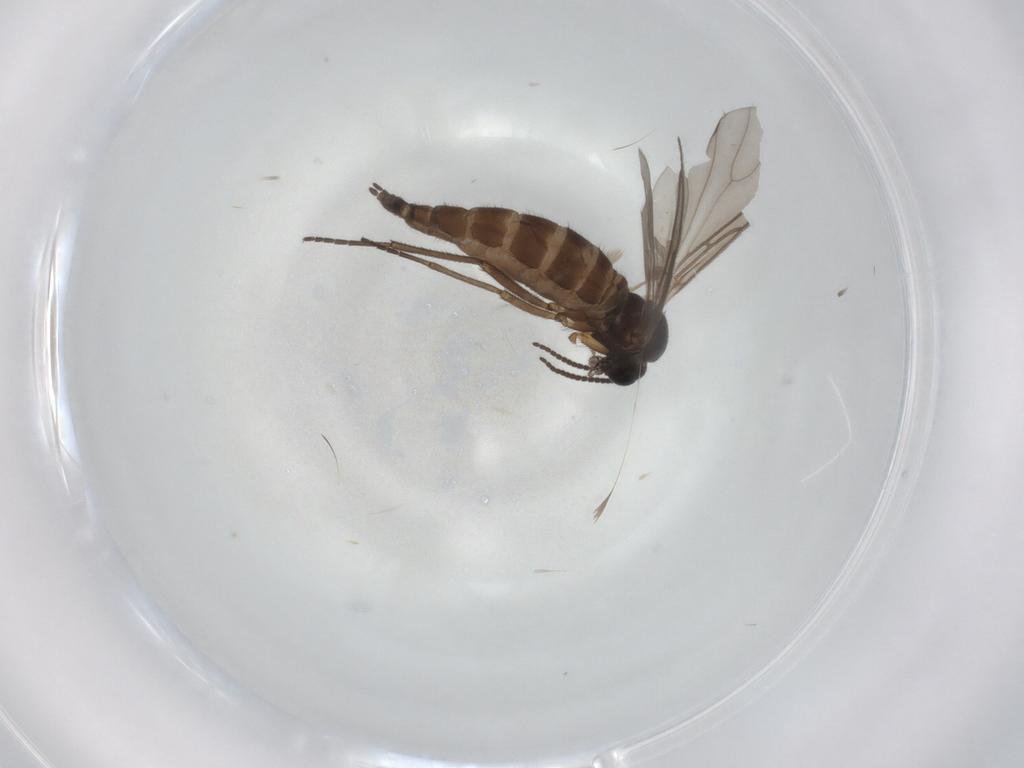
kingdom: Animalia
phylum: Arthropoda
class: Insecta
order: Diptera
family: Sciaridae
